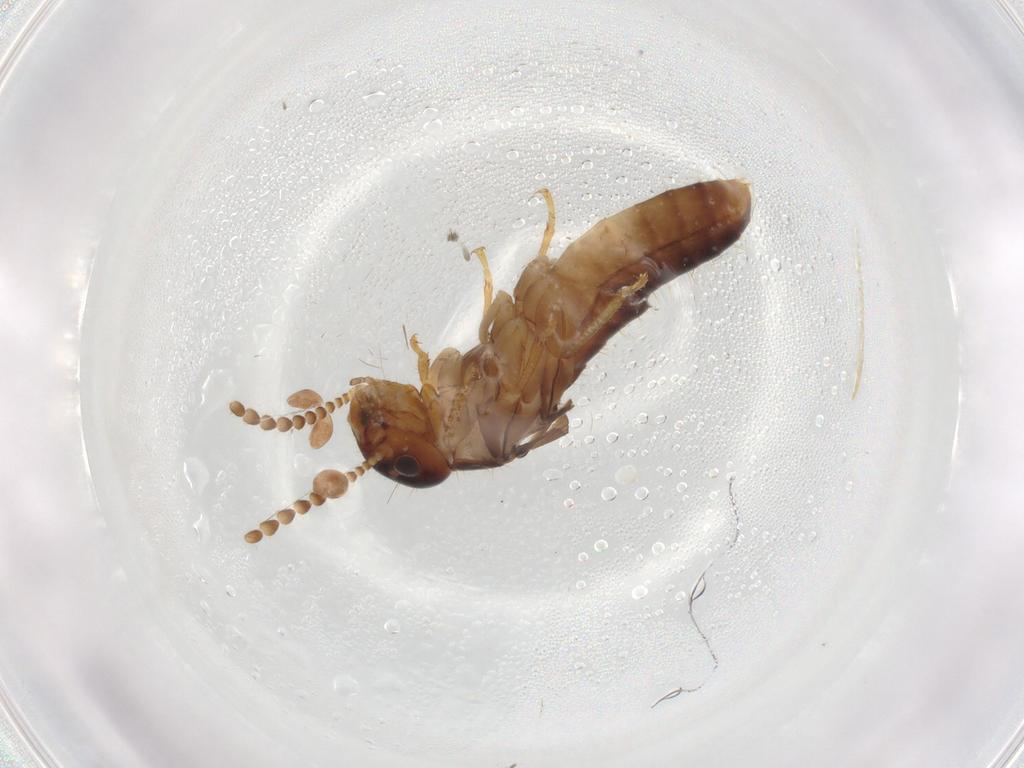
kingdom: Animalia
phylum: Arthropoda
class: Insecta
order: Blattodea
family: Kalotermitidae
